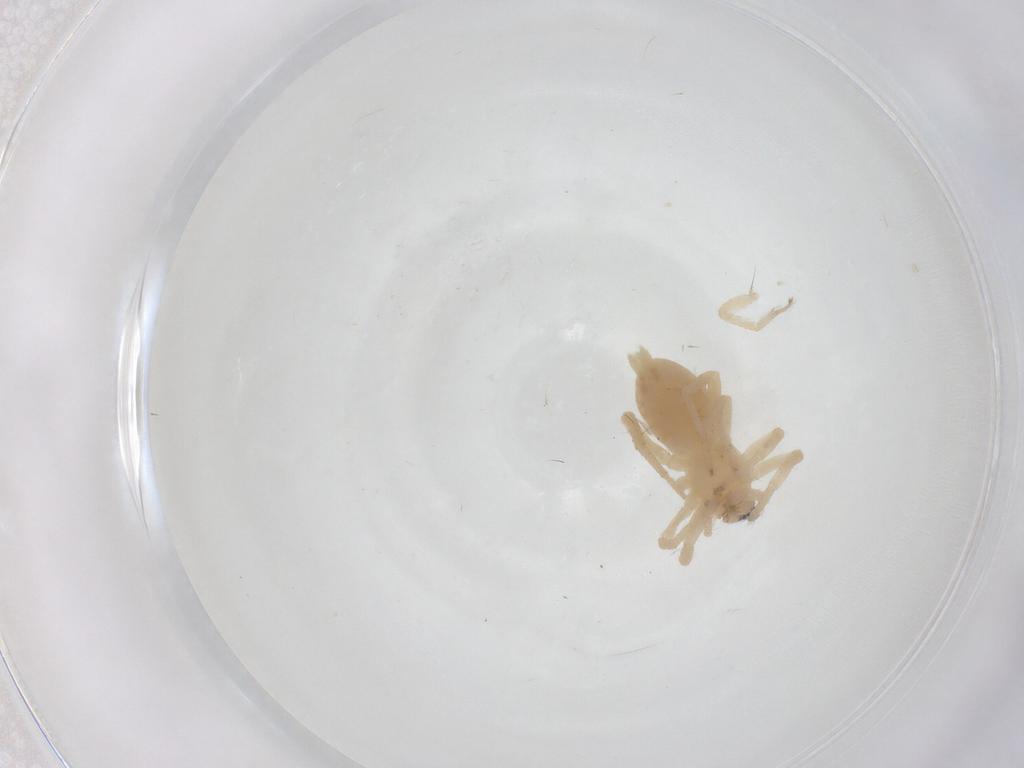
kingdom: Animalia
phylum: Arthropoda
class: Arachnida
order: Araneae
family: Anyphaenidae
